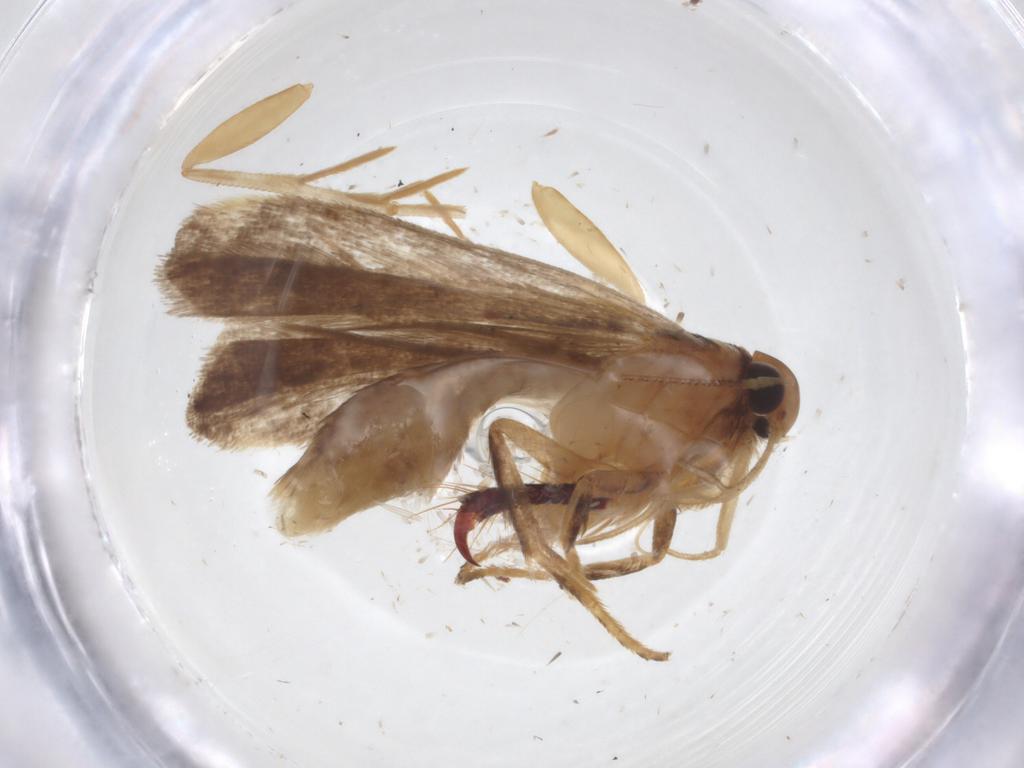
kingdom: Animalia
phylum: Arthropoda
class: Insecta
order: Lepidoptera
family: Gelechiidae
